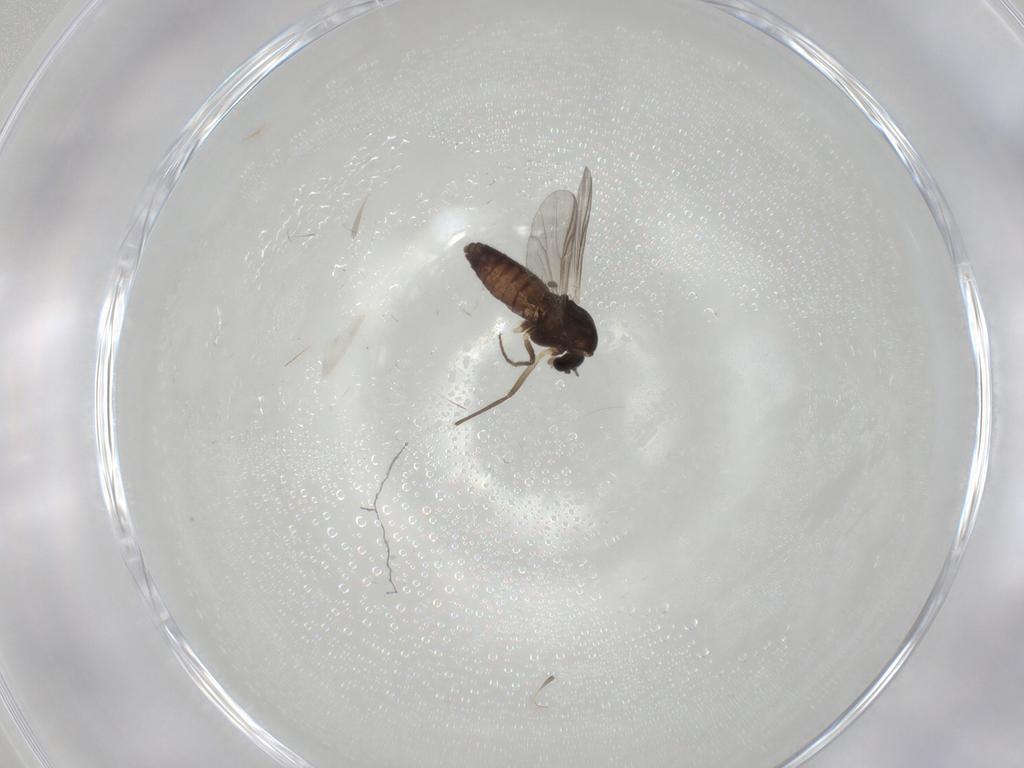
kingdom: Animalia
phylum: Arthropoda
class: Insecta
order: Diptera
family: Chironomidae
